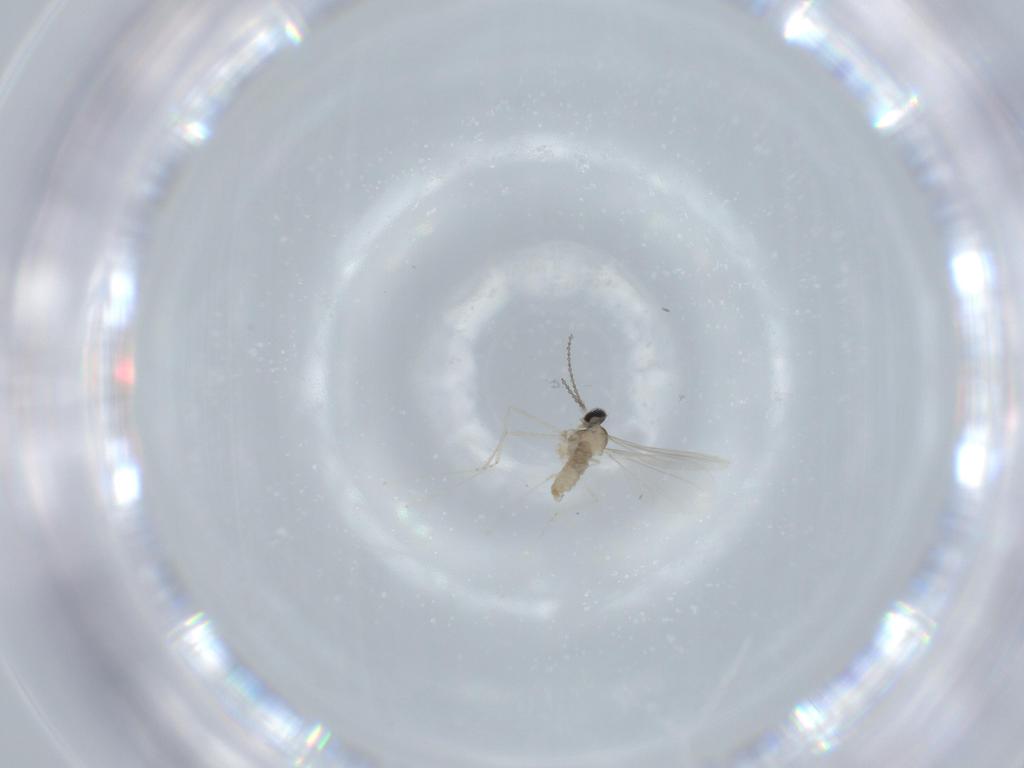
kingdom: Animalia
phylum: Arthropoda
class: Insecta
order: Diptera
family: Cecidomyiidae
